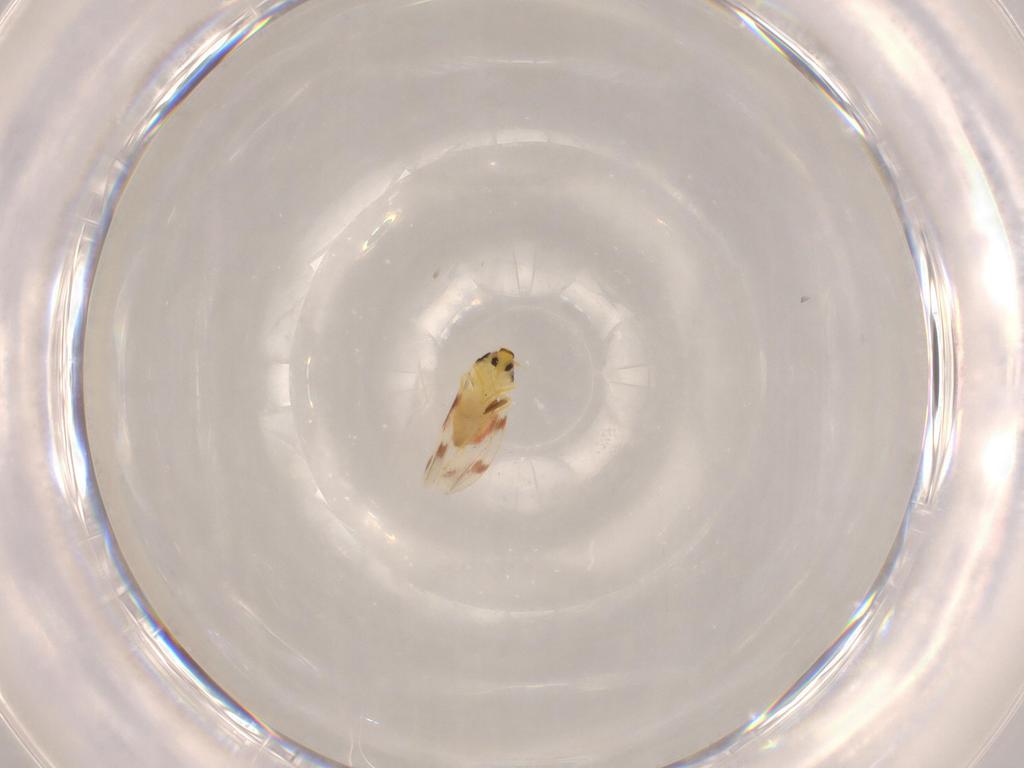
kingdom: Animalia
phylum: Arthropoda
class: Insecta
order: Hemiptera
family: Aleyrodidae
